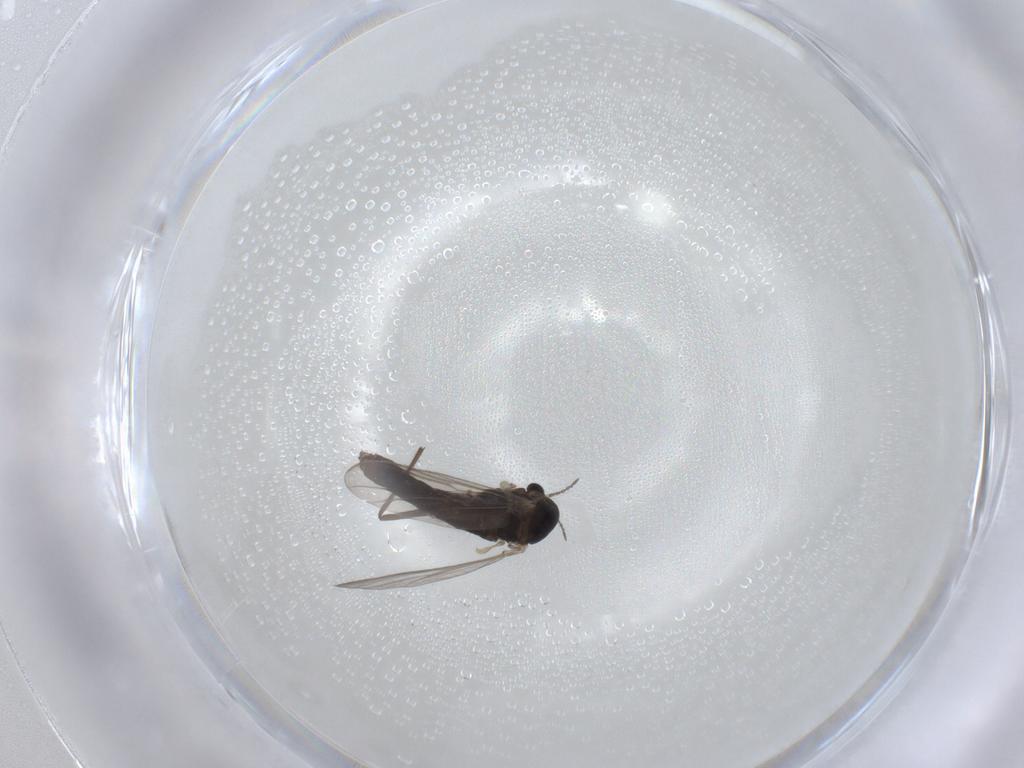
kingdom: Animalia
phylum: Arthropoda
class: Insecta
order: Diptera
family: Chironomidae
